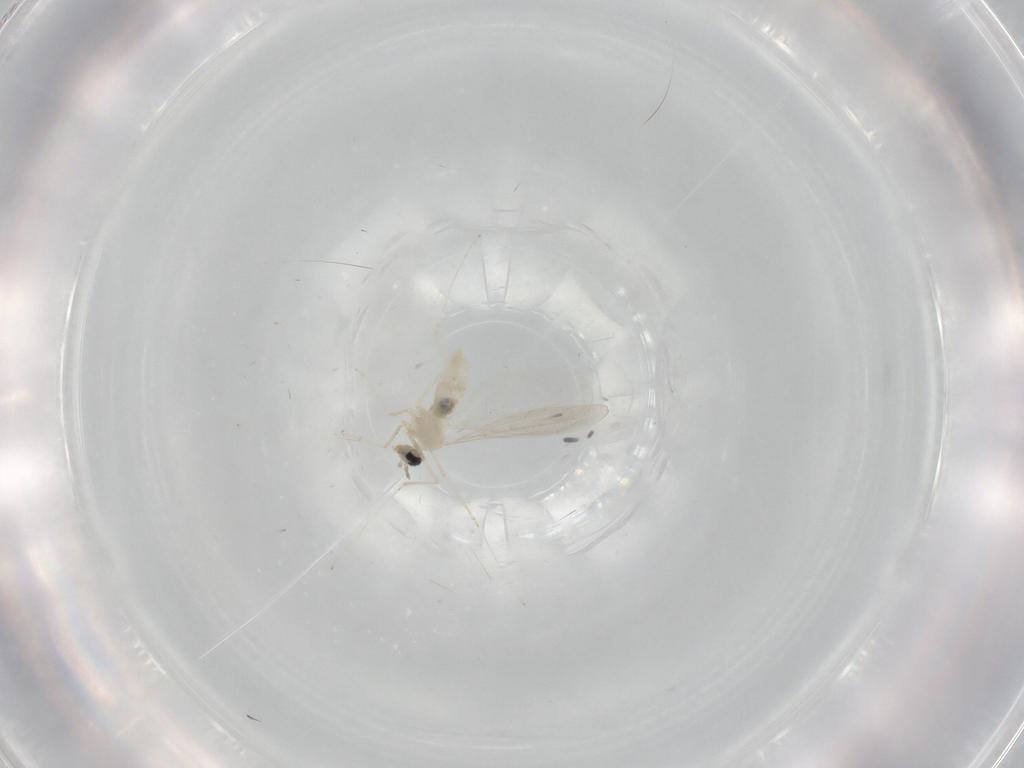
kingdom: Animalia
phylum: Arthropoda
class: Insecta
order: Diptera
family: Cecidomyiidae
